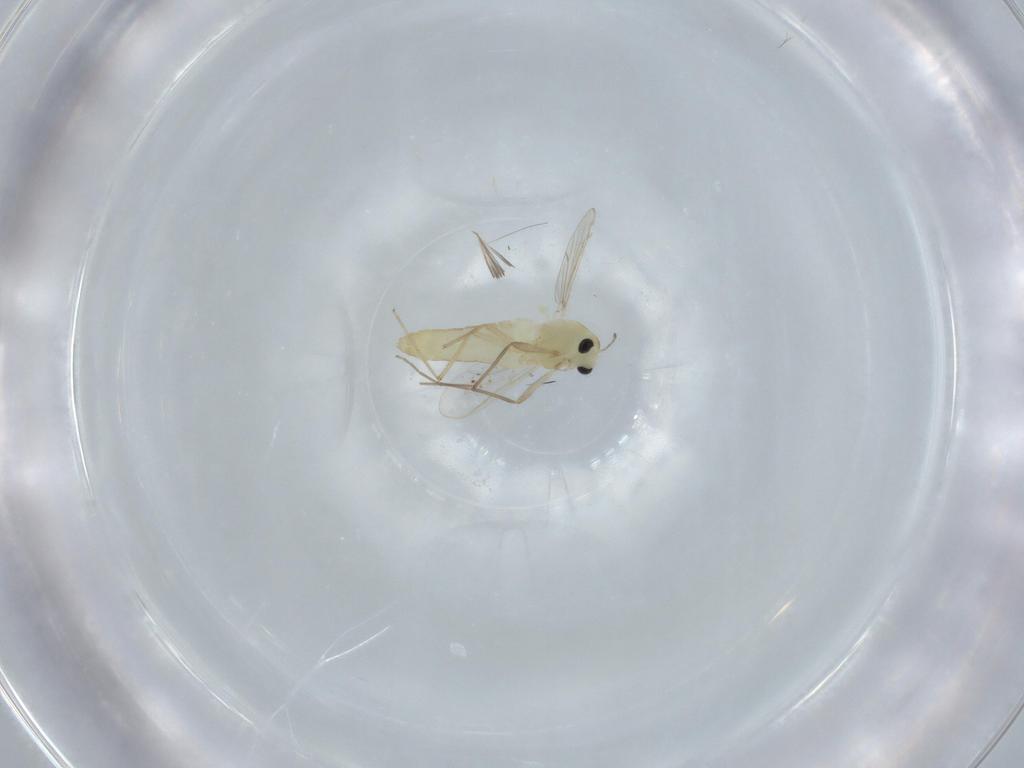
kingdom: Animalia
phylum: Arthropoda
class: Insecta
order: Diptera
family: Chironomidae
